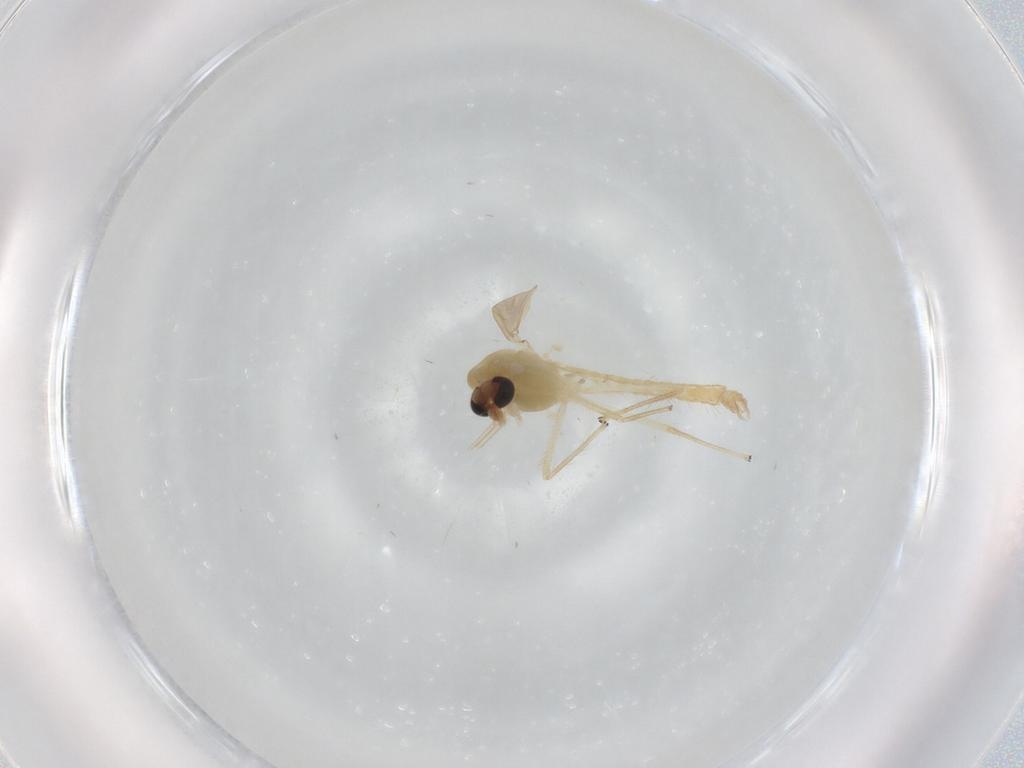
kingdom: Animalia
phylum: Arthropoda
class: Insecta
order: Diptera
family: Chironomidae
